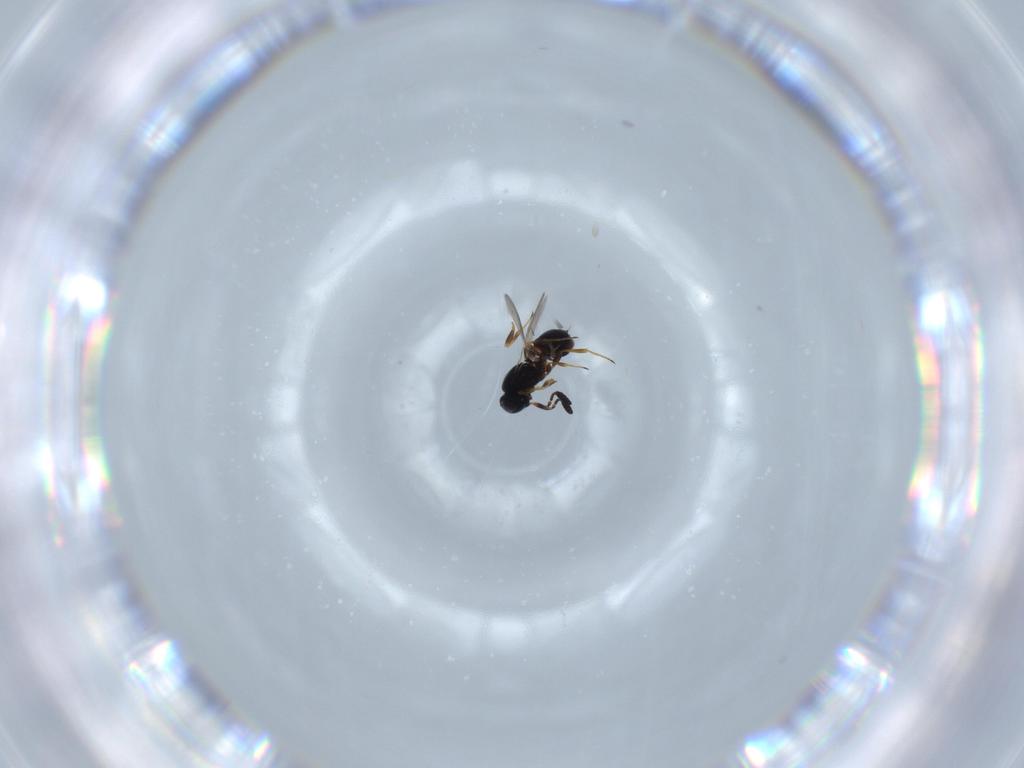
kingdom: Animalia
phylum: Arthropoda
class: Insecta
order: Hymenoptera
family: Scelionidae
